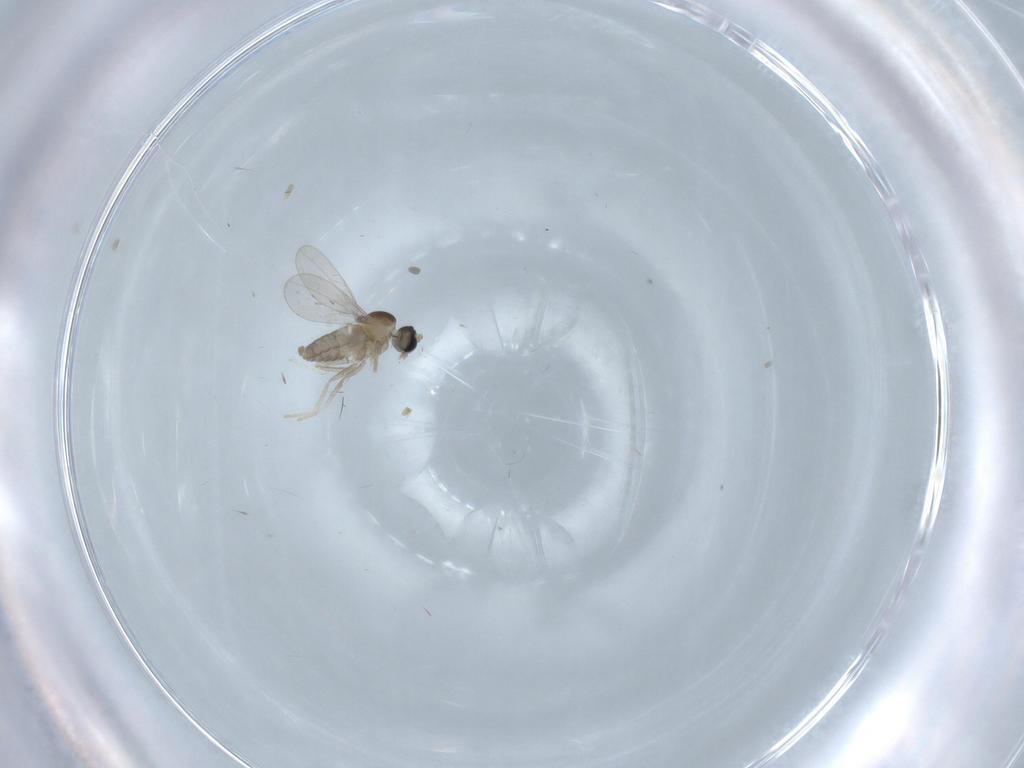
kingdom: Animalia
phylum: Arthropoda
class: Insecta
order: Diptera
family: Cecidomyiidae
